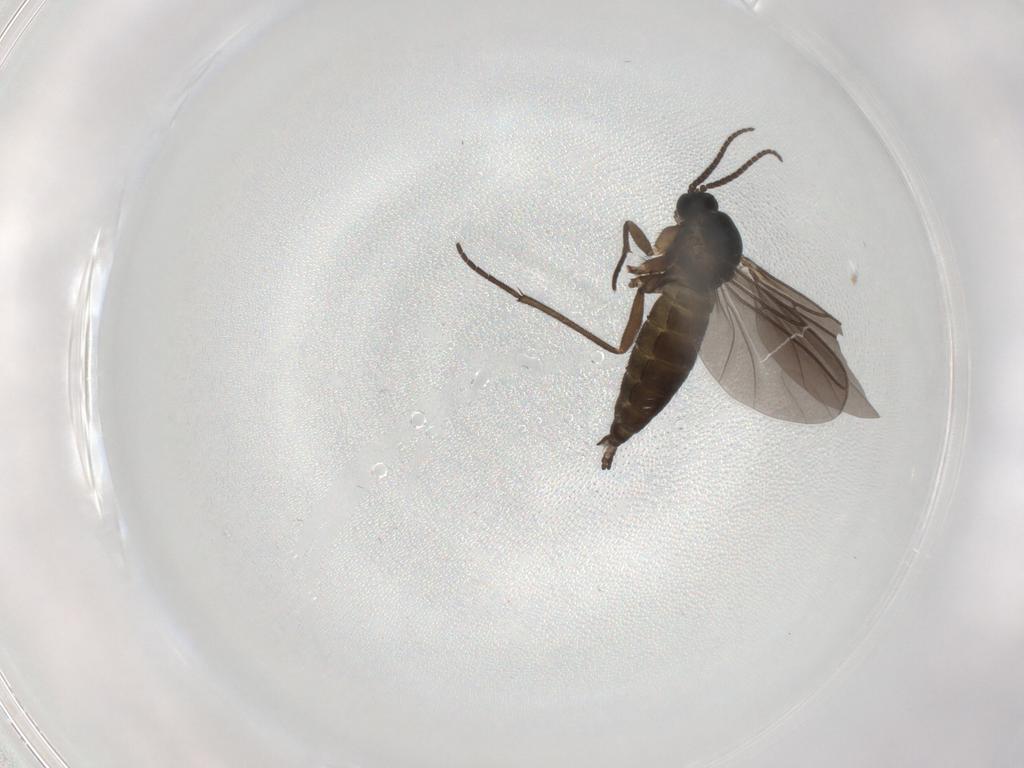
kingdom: Animalia
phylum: Arthropoda
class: Insecta
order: Diptera
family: Sciaridae
